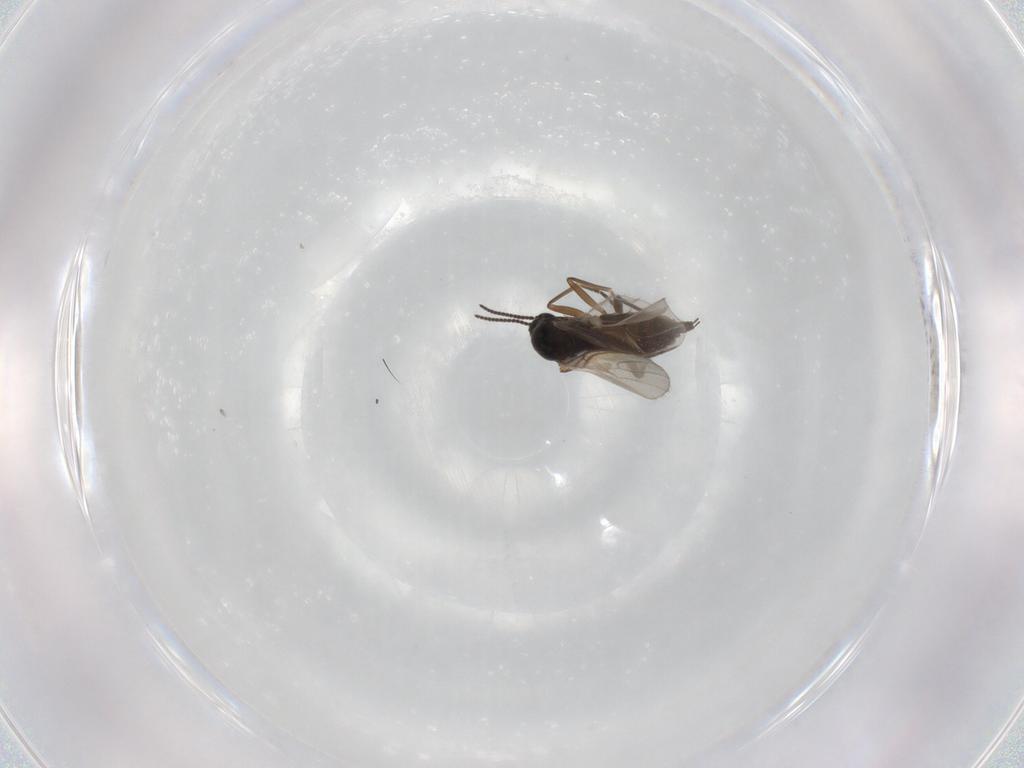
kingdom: Animalia
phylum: Arthropoda
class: Insecta
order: Diptera
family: Sciaridae
